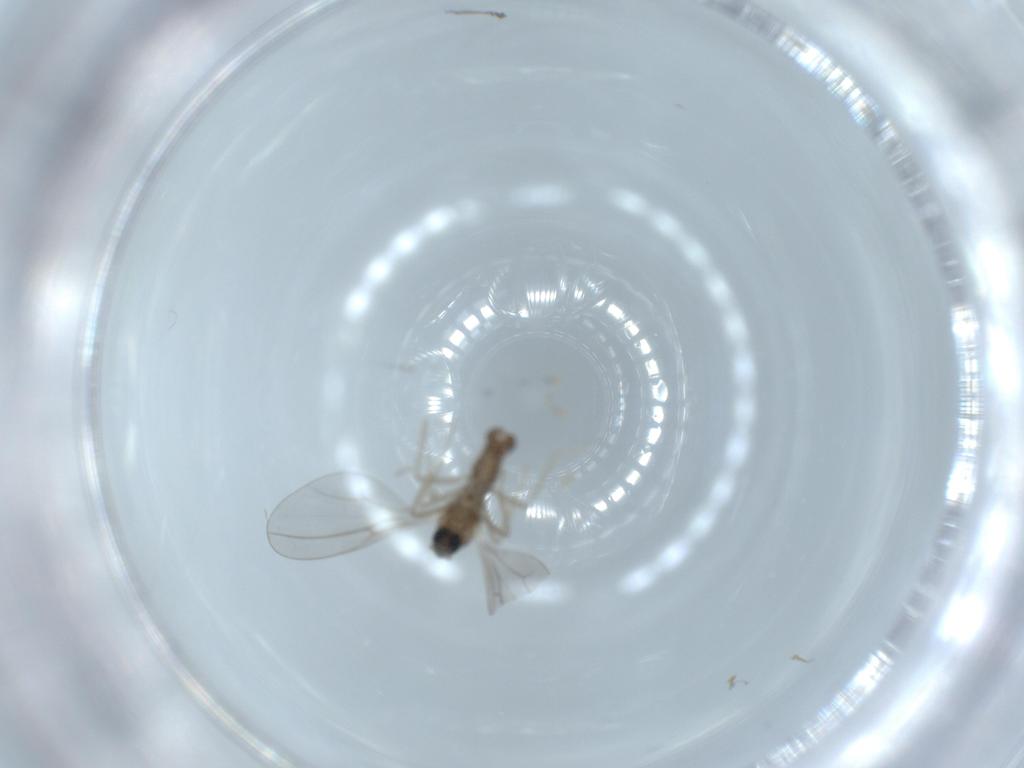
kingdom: Animalia
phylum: Arthropoda
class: Insecta
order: Diptera
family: Cecidomyiidae
